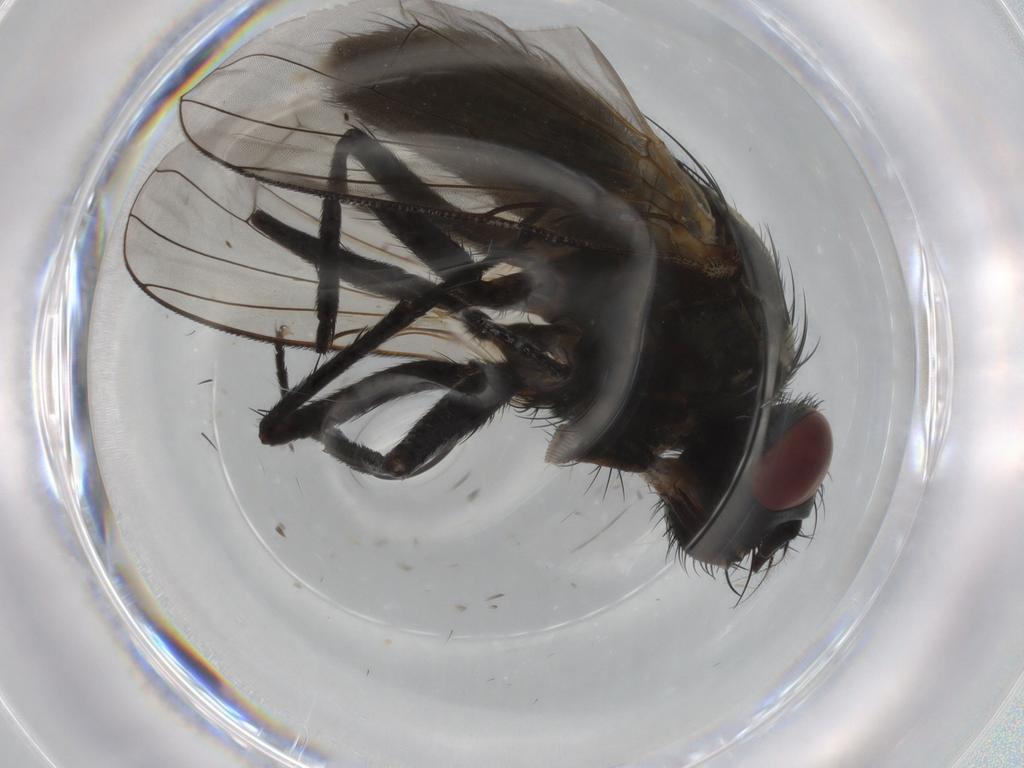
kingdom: Animalia
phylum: Arthropoda
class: Insecta
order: Diptera
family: Muscidae
